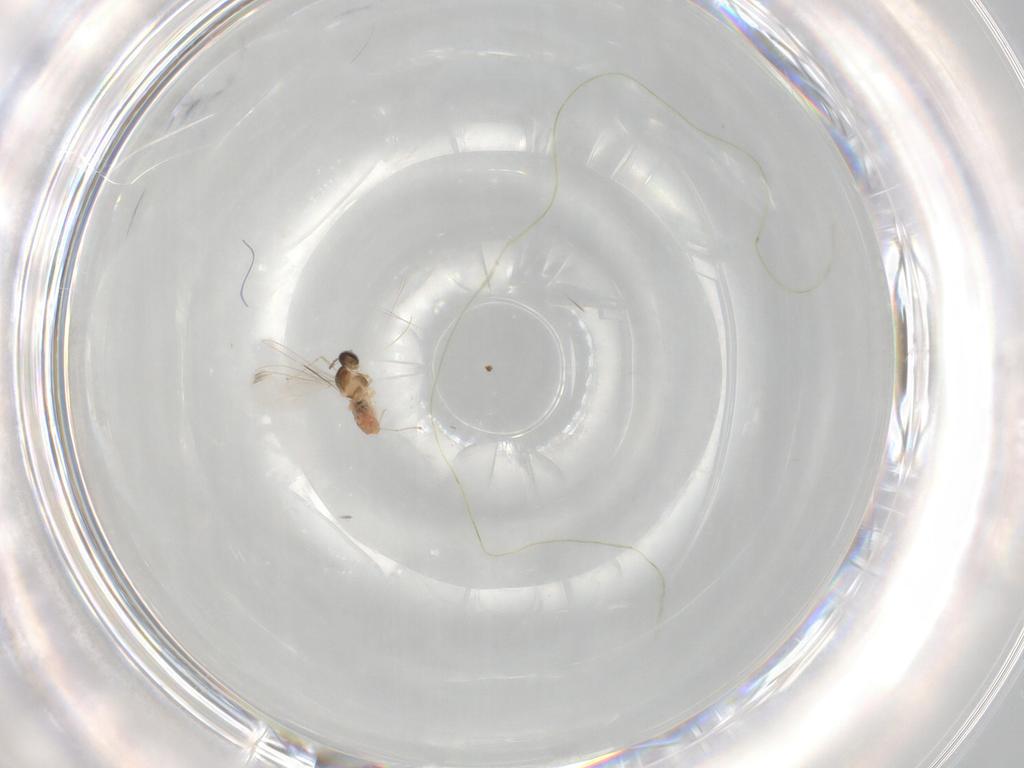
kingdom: Animalia
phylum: Arthropoda
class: Insecta
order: Diptera
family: Cecidomyiidae
